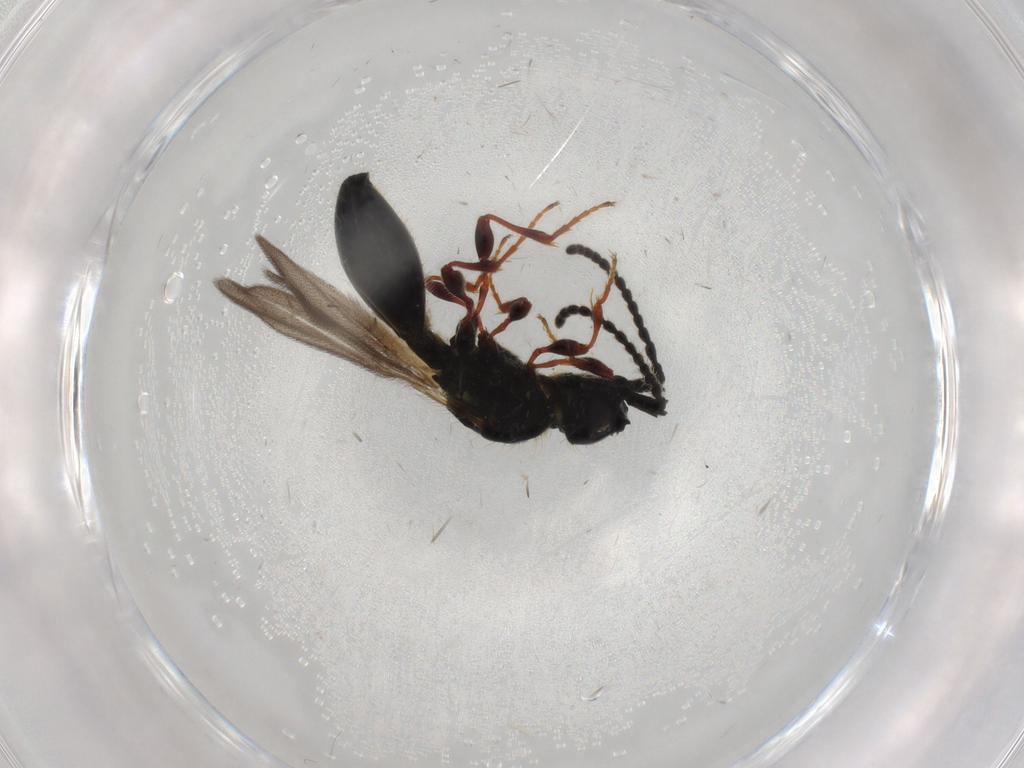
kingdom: Animalia
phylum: Arthropoda
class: Insecta
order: Hymenoptera
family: Diapriidae
